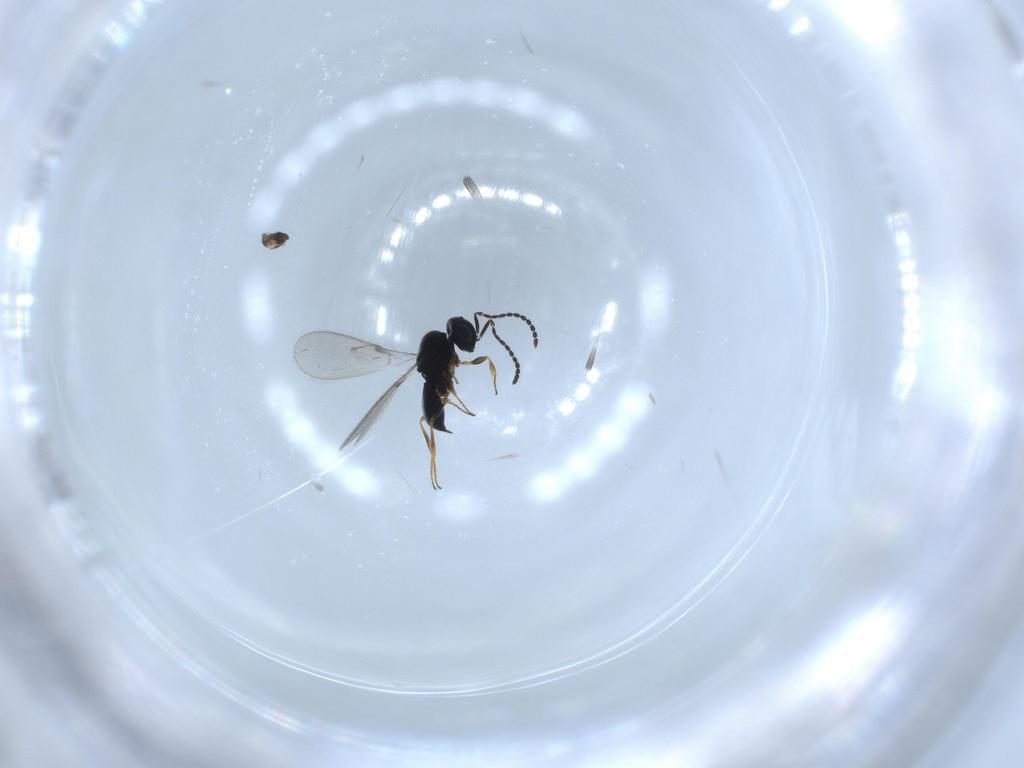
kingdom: Animalia
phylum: Arthropoda
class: Insecta
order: Hymenoptera
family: Scelionidae
